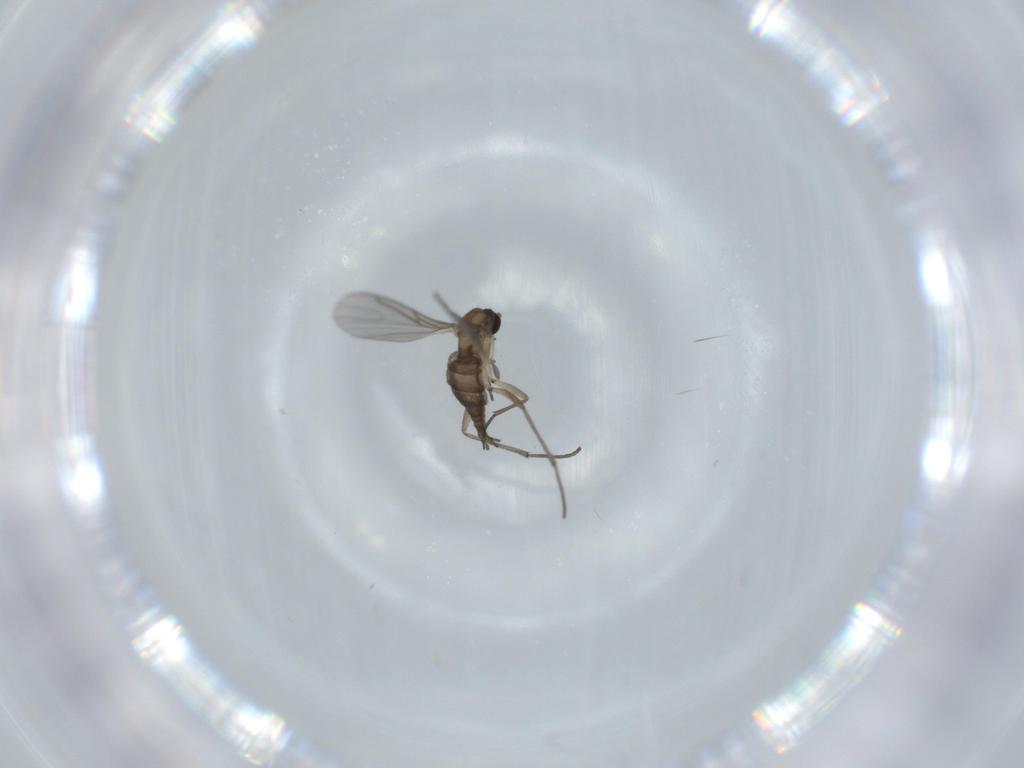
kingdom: Animalia
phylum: Arthropoda
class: Insecta
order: Diptera
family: Sciaridae
